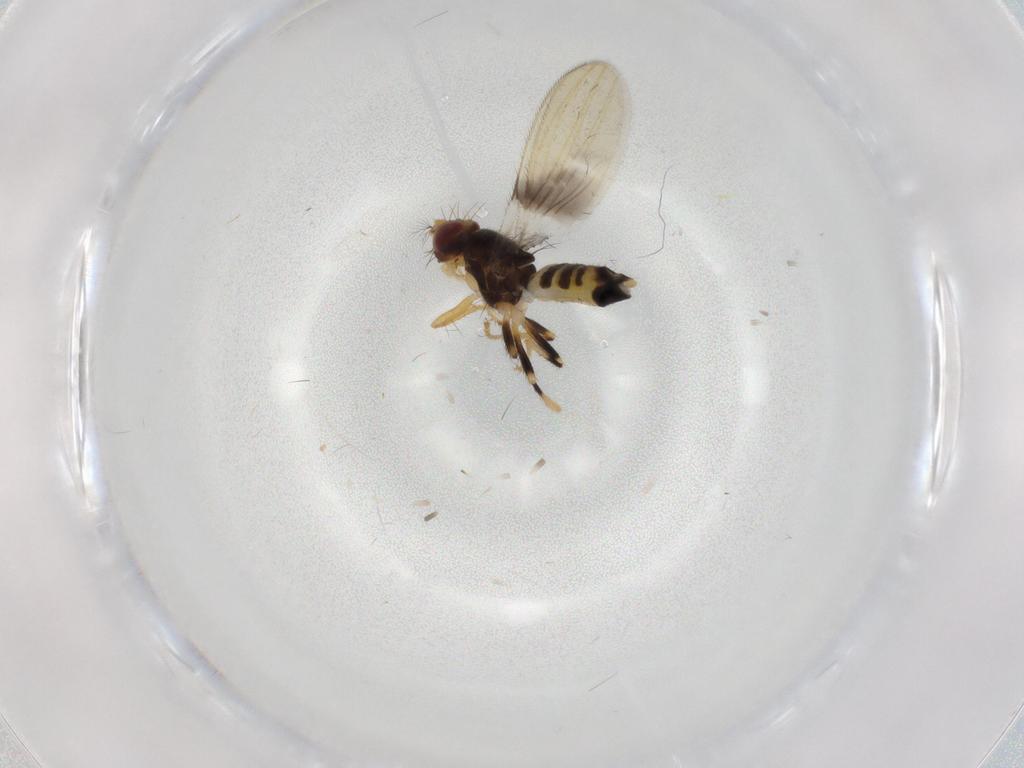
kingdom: Animalia
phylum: Arthropoda
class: Insecta
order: Diptera
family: Periscelididae
